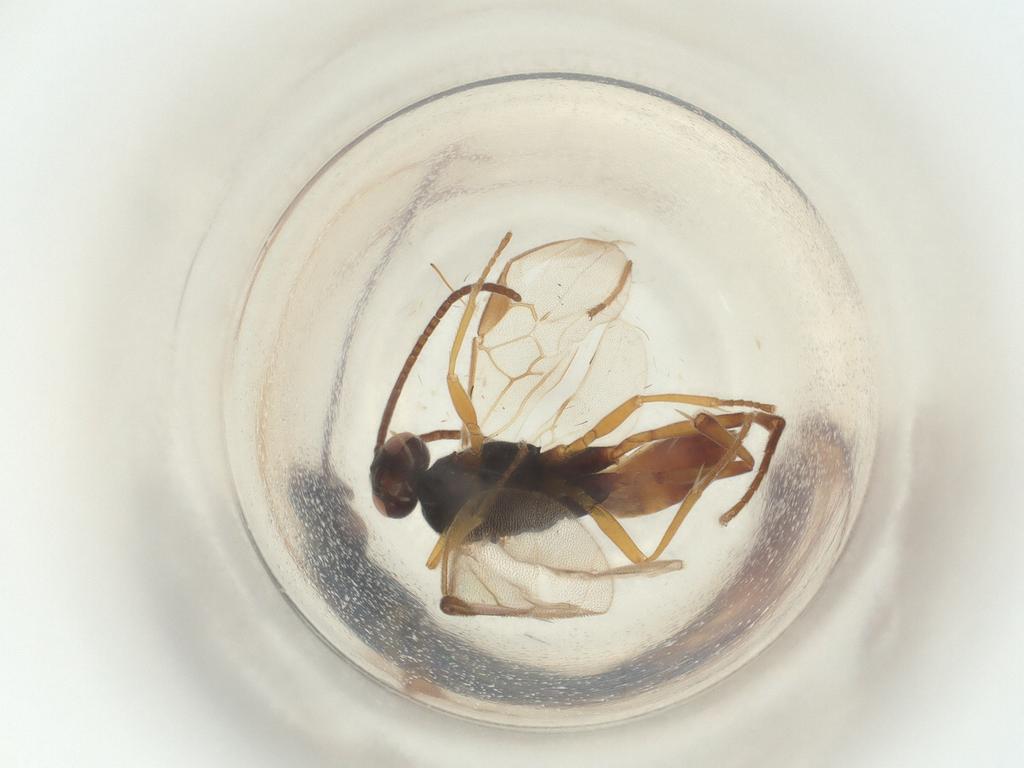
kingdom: Animalia
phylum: Arthropoda
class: Insecta
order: Hymenoptera
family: Braconidae
